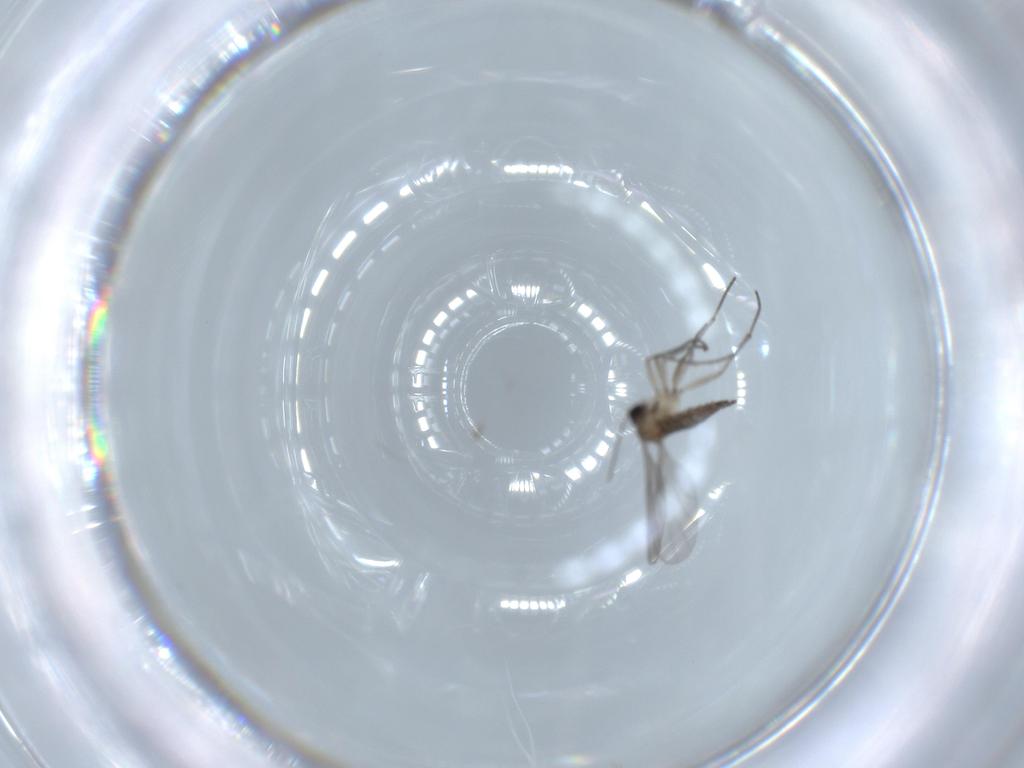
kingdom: Animalia
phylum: Arthropoda
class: Insecta
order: Diptera
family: Sciaridae
